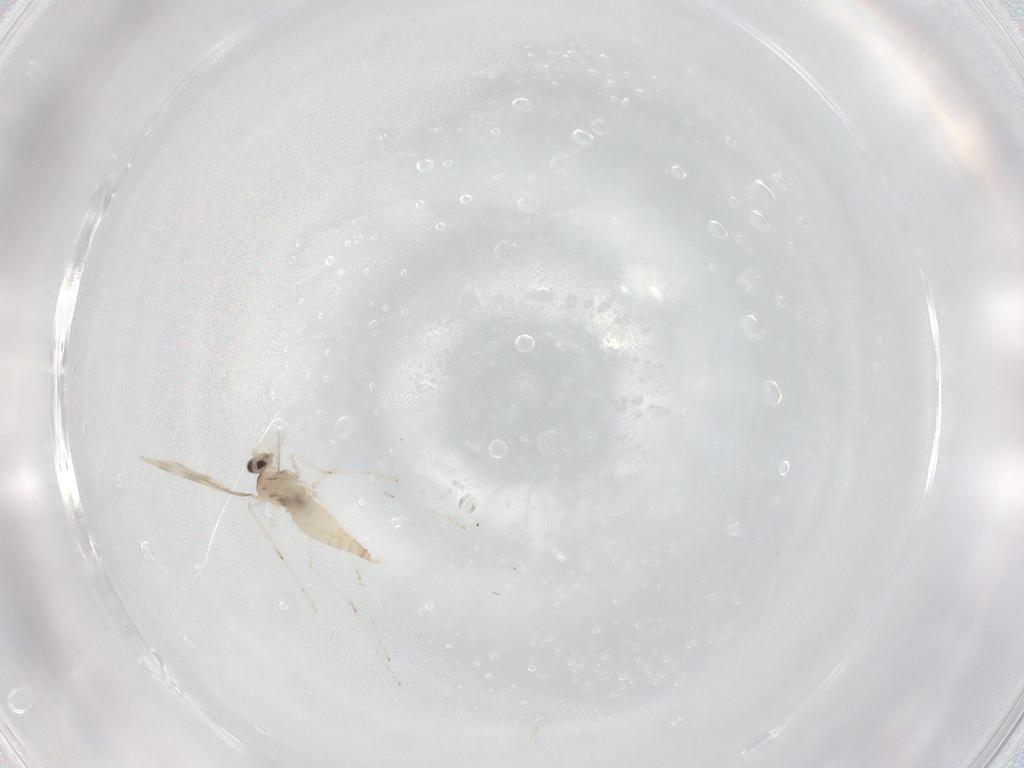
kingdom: Animalia
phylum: Arthropoda
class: Insecta
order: Diptera
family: Cecidomyiidae
